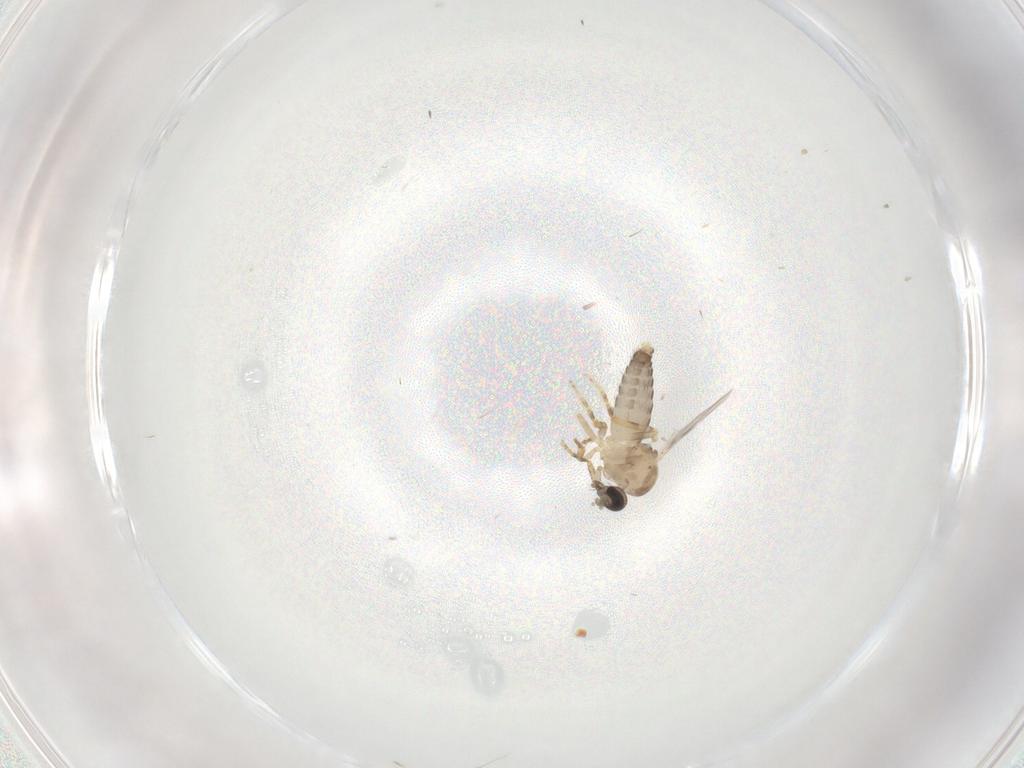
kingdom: Animalia
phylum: Arthropoda
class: Insecta
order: Diptera
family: Ceratopogonidae
